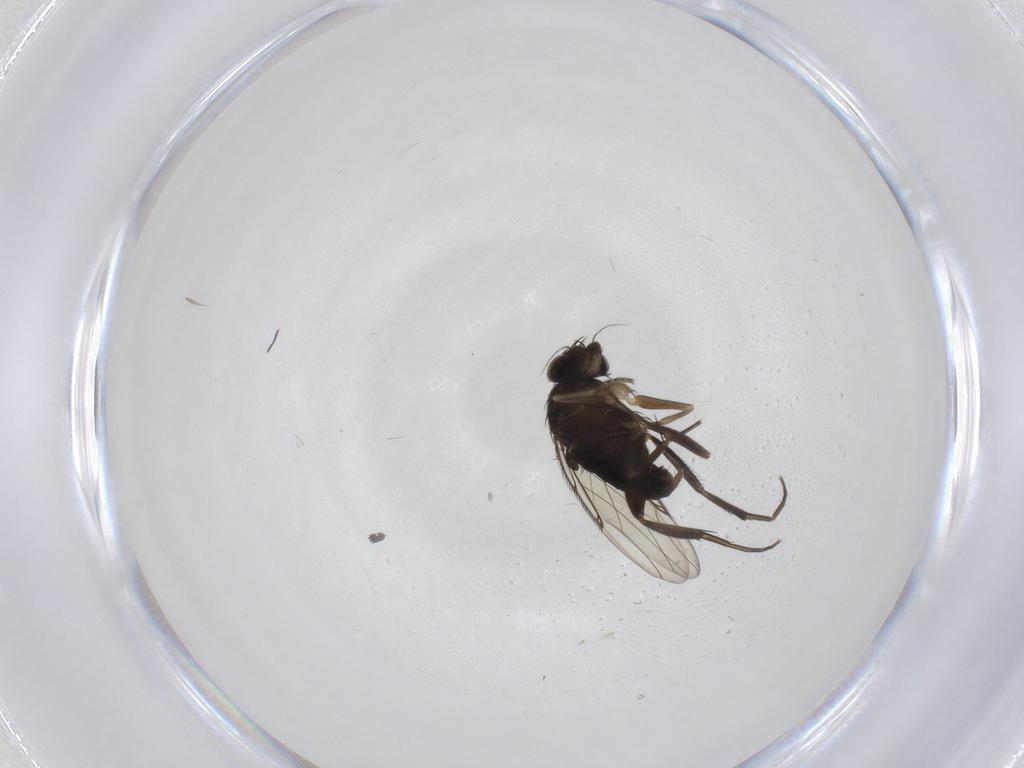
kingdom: Animalia
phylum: Arthropoda
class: Insecta
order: Diptera
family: Phoridae
